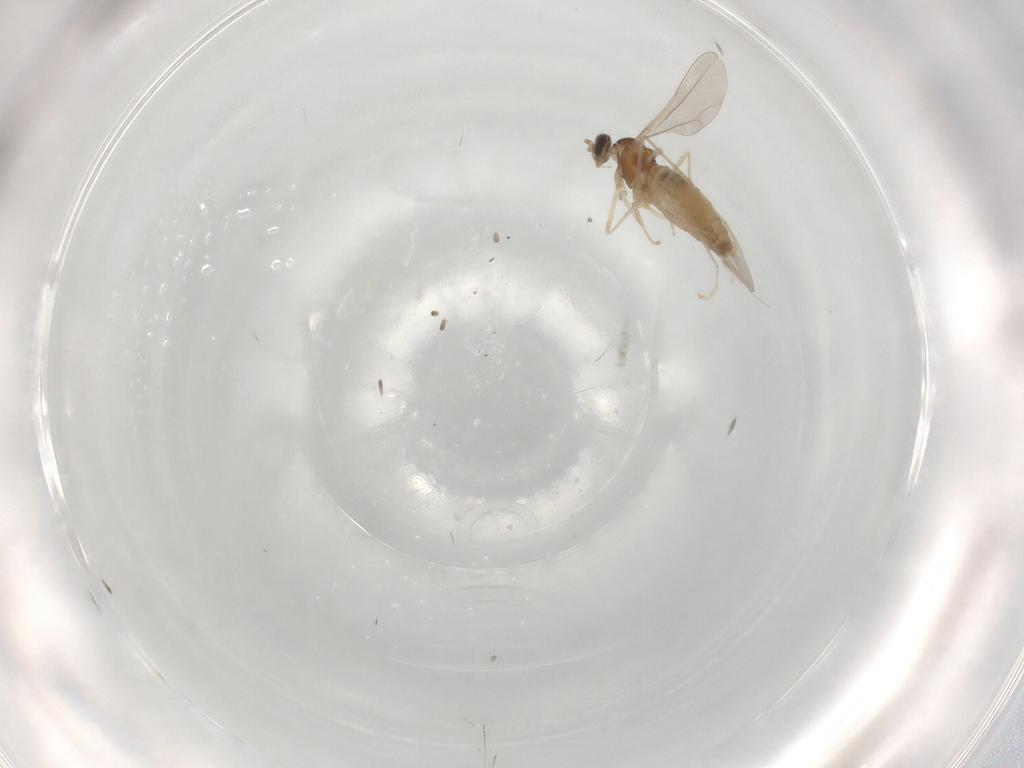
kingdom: Animalia
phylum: Arthropoda
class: Insecta
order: Diptera
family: Cecidomyiidae
